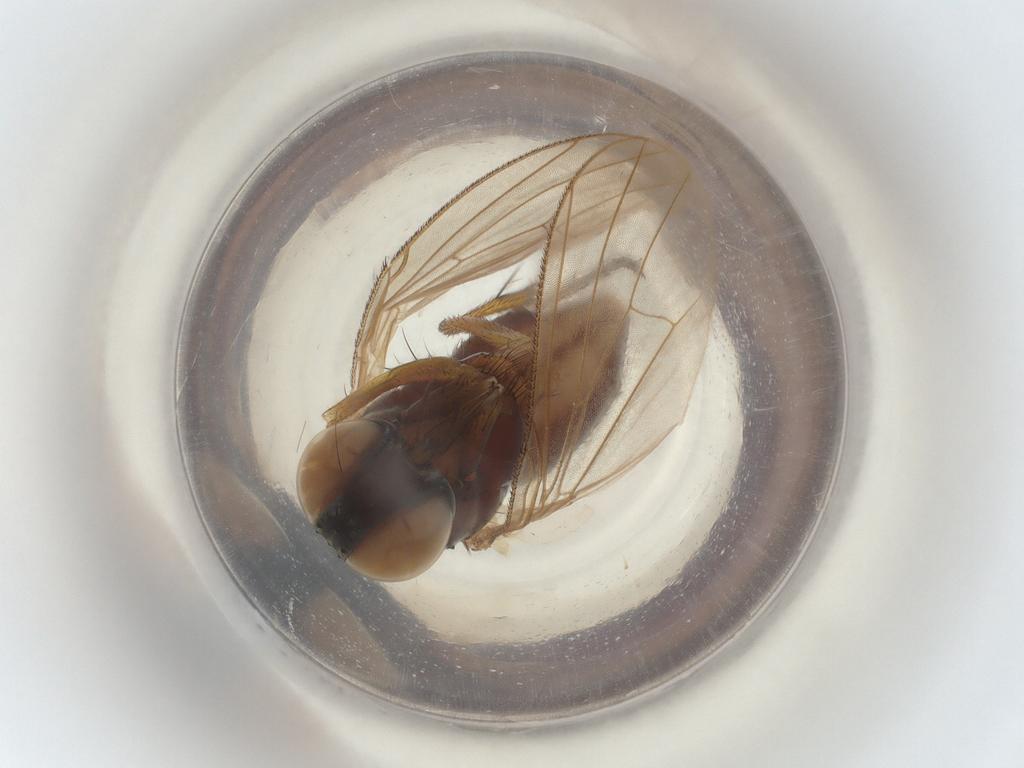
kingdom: Animalia
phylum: Arthropoda
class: Insecta
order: Diptera
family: Muscidae
